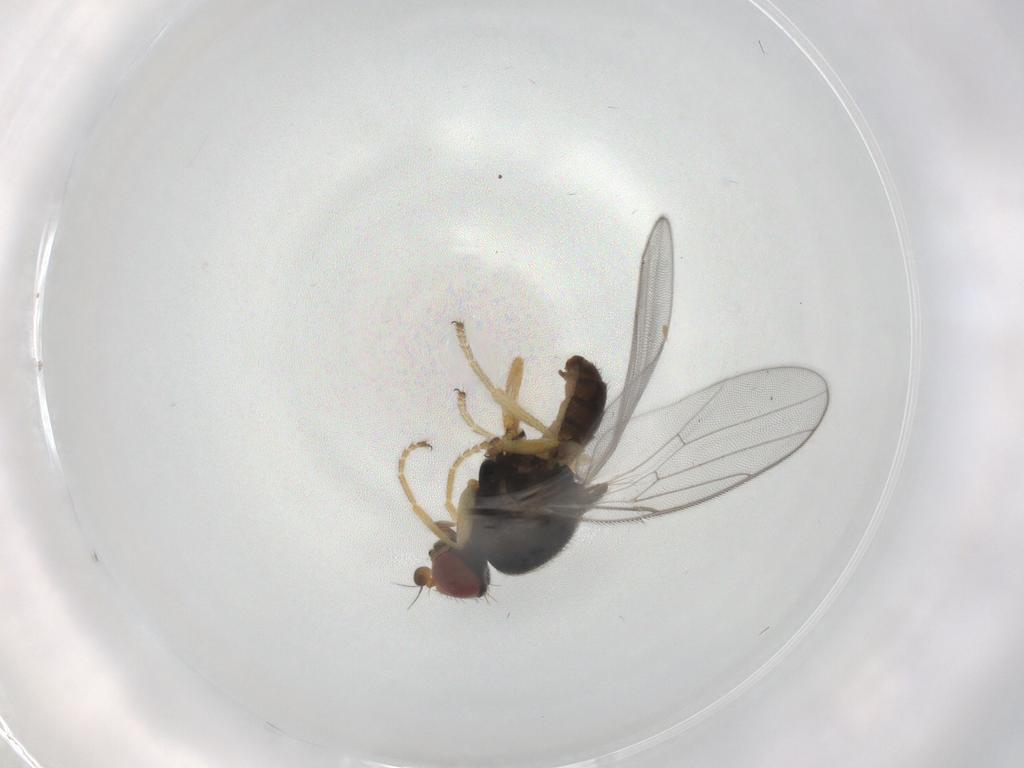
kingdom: Animalia
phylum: Arthropoda
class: Insecta
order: Diptera
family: Chloropidae
